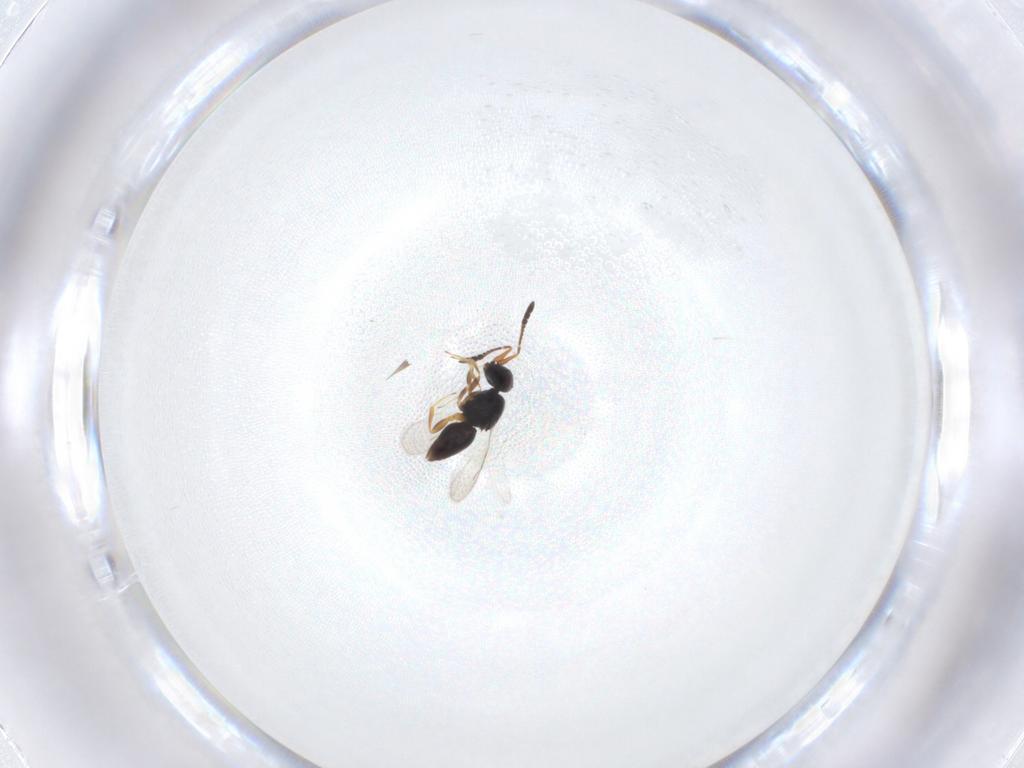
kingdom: Animalia
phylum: Arthropoda
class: Insecta
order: Hymenoptera
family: Ceraphronidae
